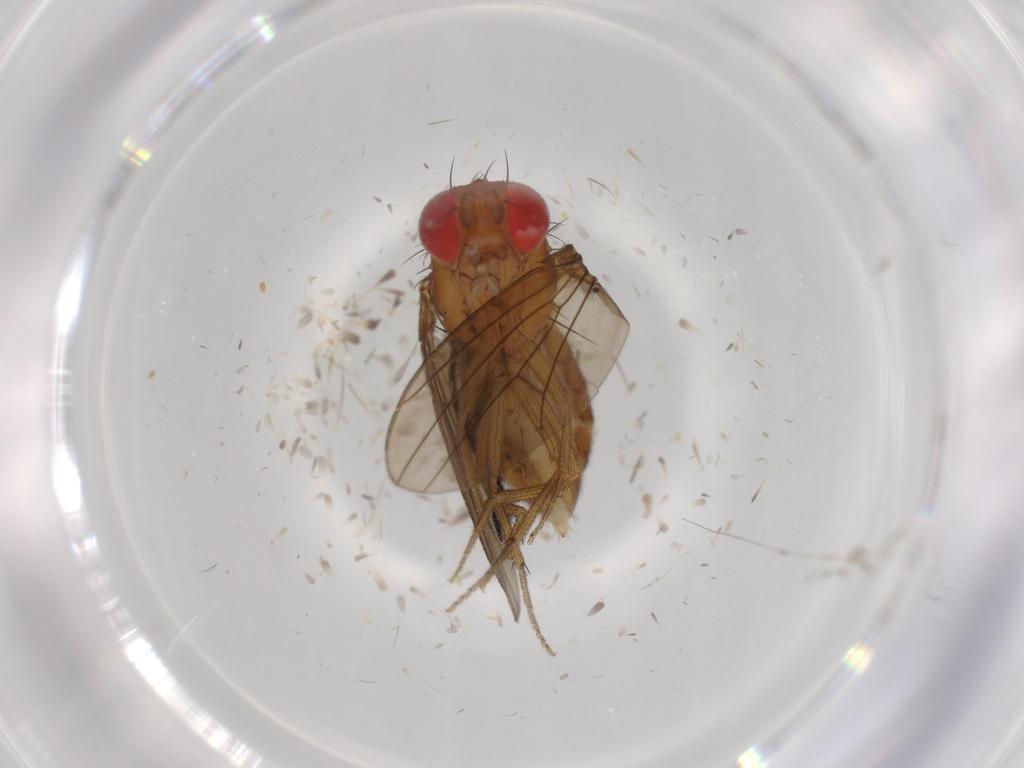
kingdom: Animalia
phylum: Arthropoda
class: Insecta
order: Diptera
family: Drosophilidae
